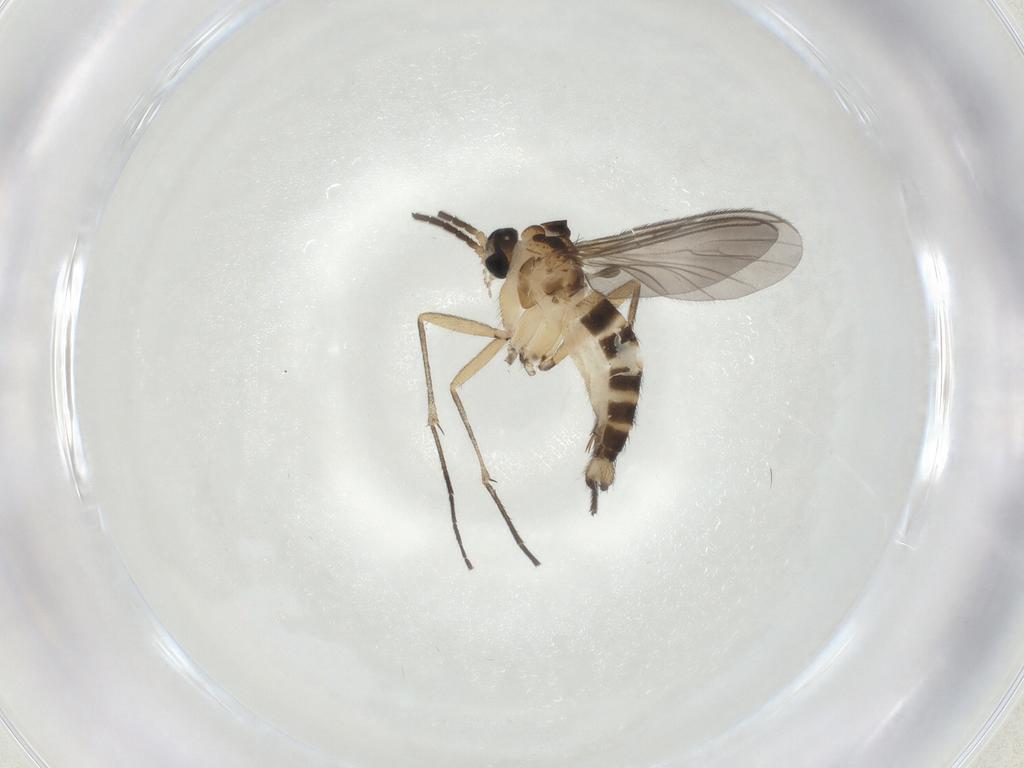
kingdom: Animalia
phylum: Arthropoda
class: Insecta
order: Diptera
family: Sciaridae
